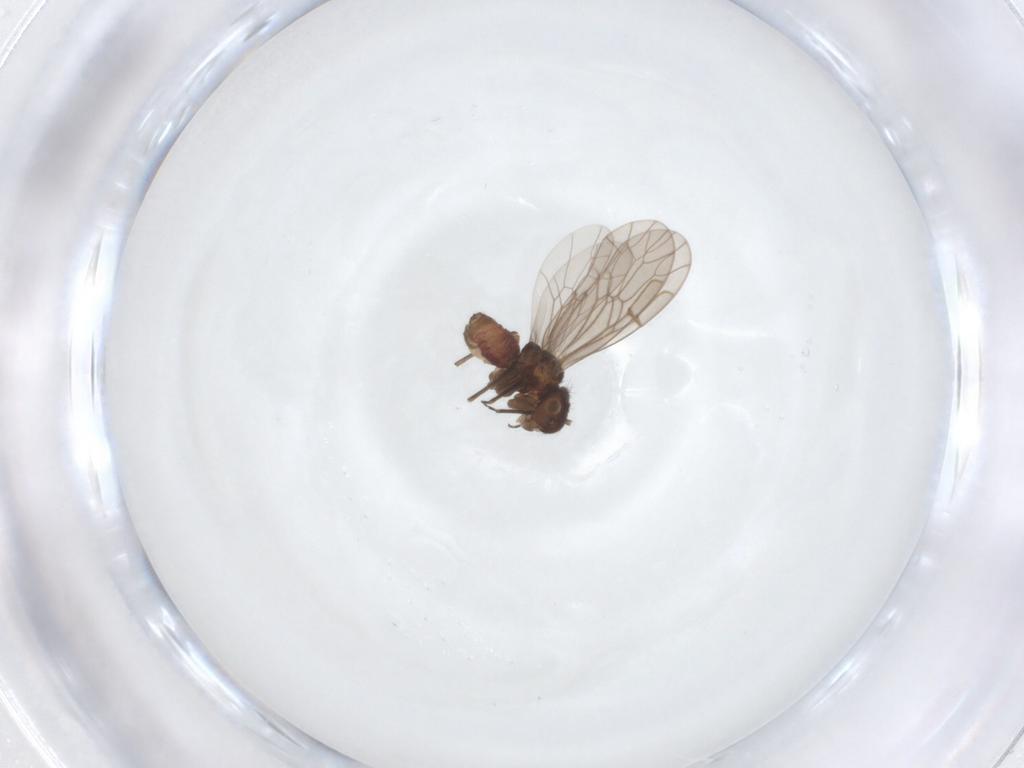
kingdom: Animalia
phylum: Arthropoda
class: Insecta
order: Psocodea
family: Ectopsocidae
